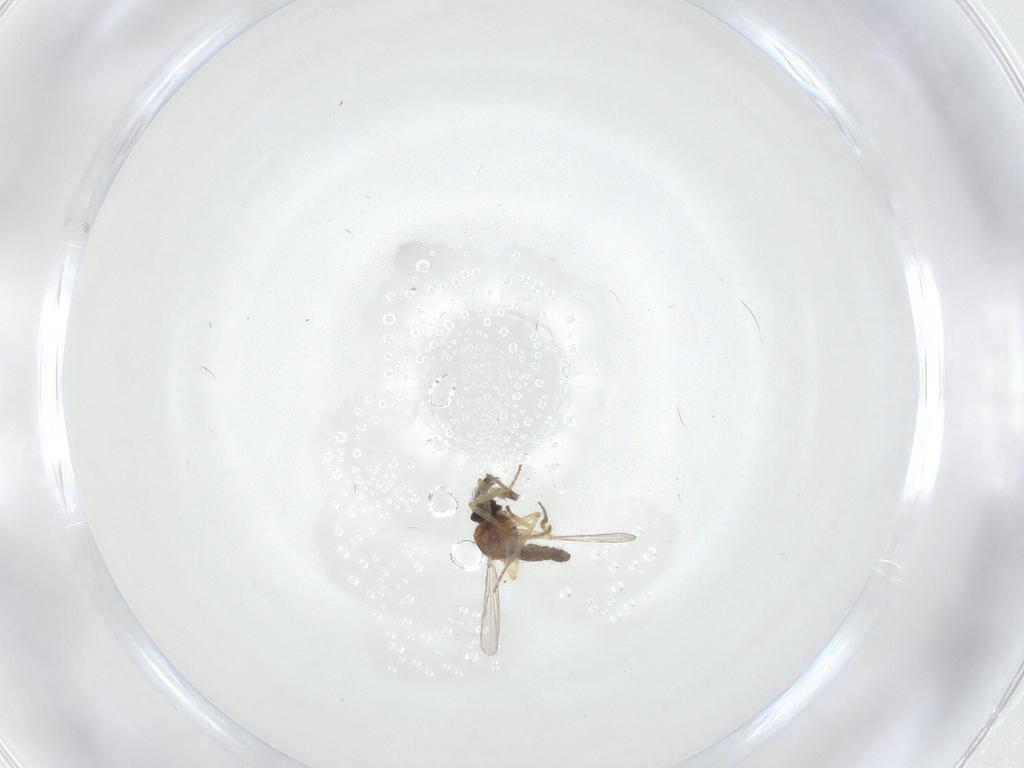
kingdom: Animalia
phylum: Arthropoda
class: Insecta
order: Diptera
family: Ceratopogonidae
